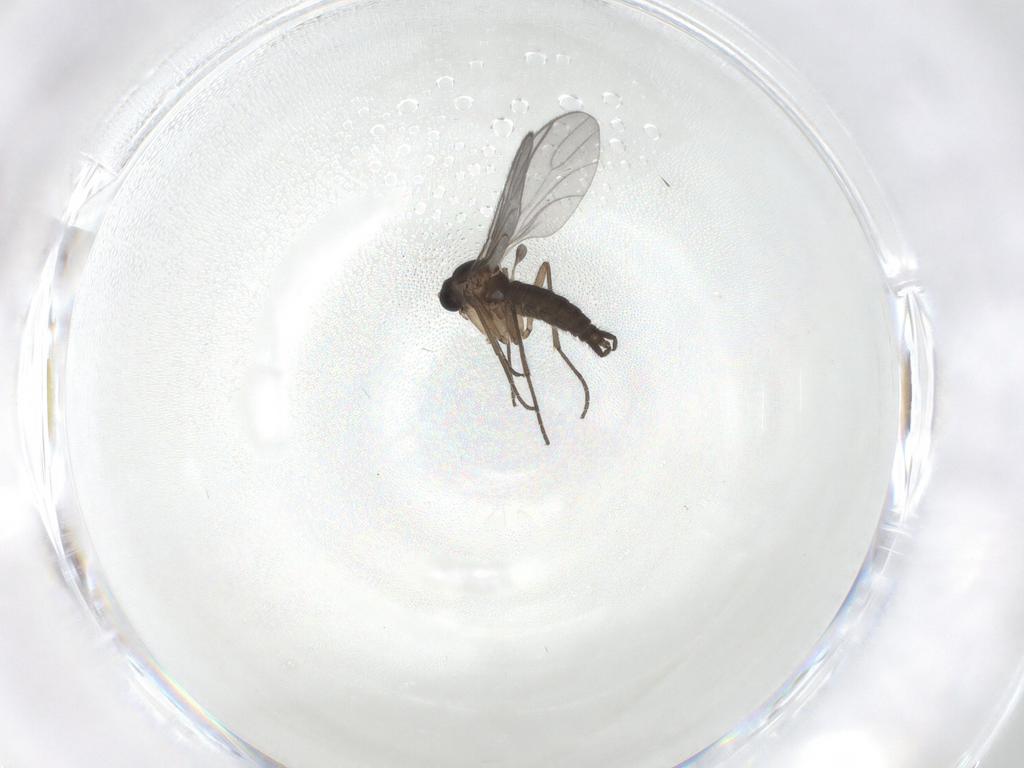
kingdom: Animalia
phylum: Arthropoda
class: Insecta
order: Diptera
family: Sciaridae
